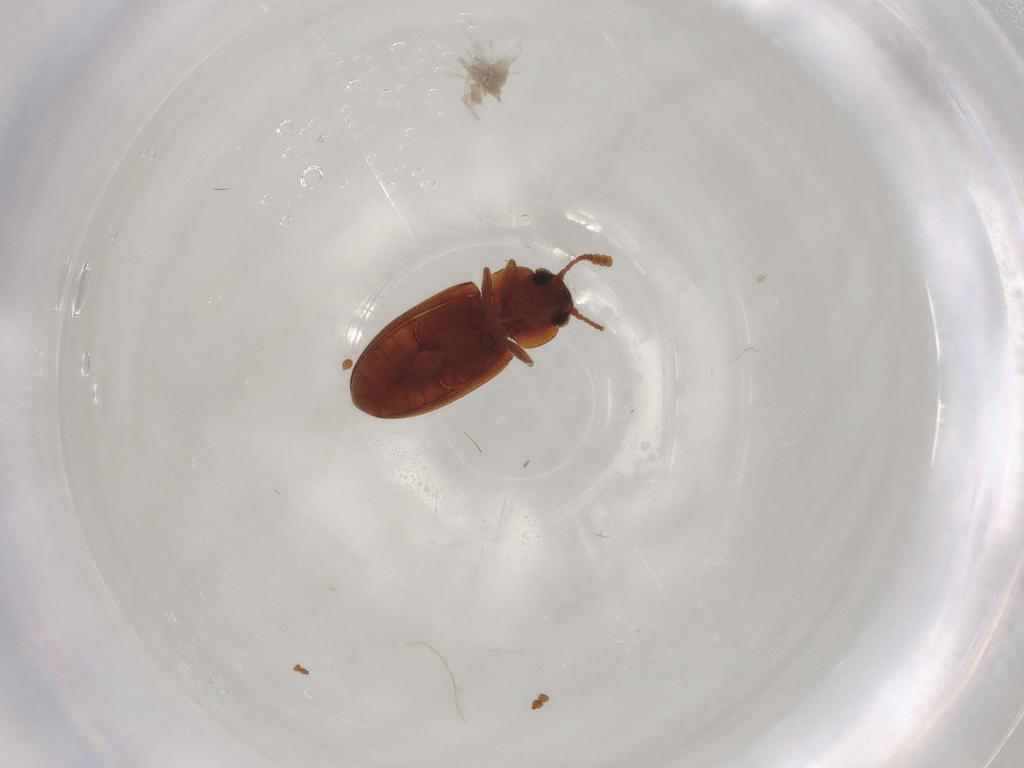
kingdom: Animalia
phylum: Arthropoda
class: Insecta
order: Coleoptera
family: Erotylidae
